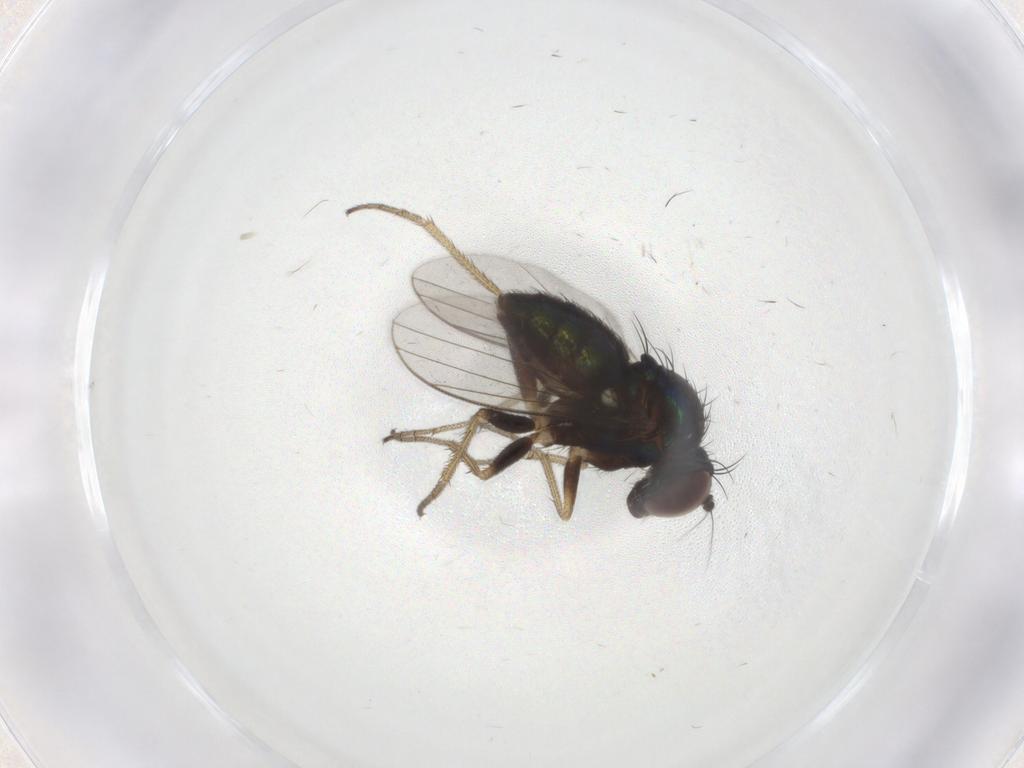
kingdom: Animalia
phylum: Arthropoda
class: Insecta
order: Diptera
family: Dolichopodidae
